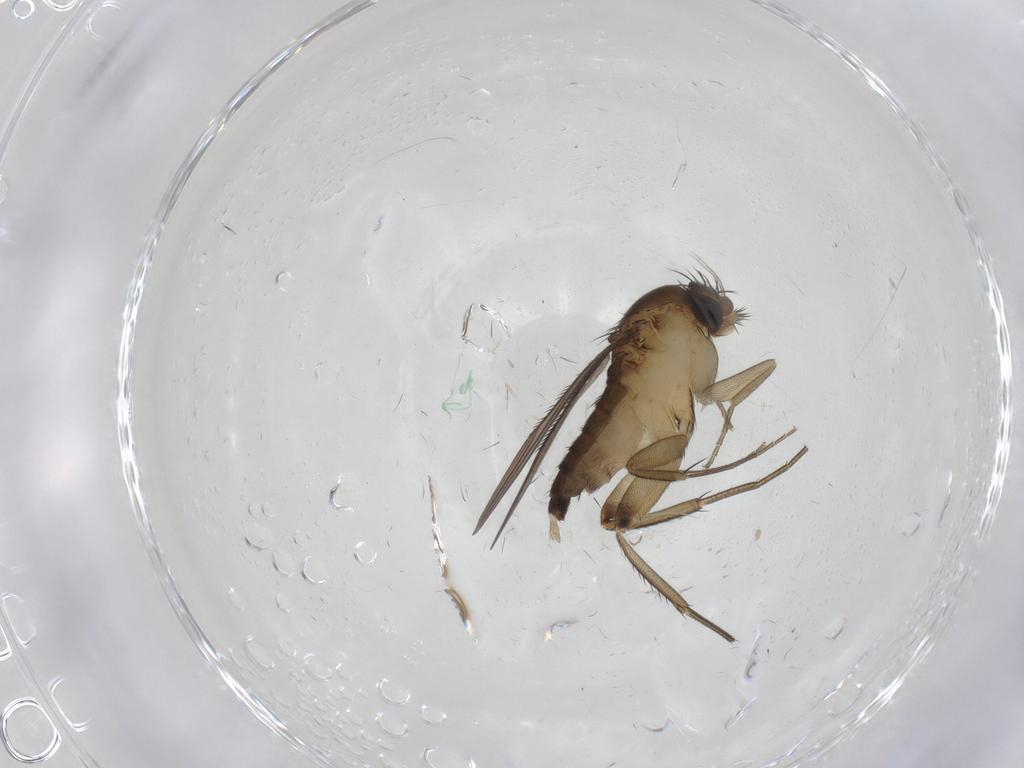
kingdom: Animalia
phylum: Arthropoda
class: Insecta
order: Diptera
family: Phoridae
